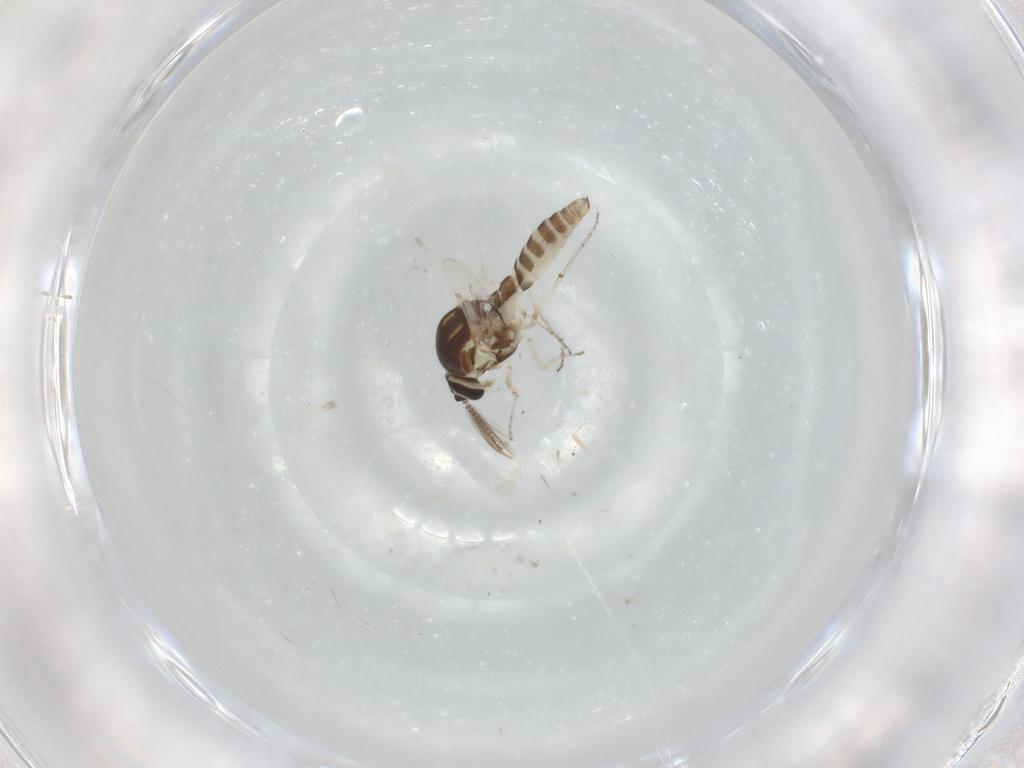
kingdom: Animalia
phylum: Arthropoda
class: Insecta
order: Diptera
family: Ceratopogonidae
